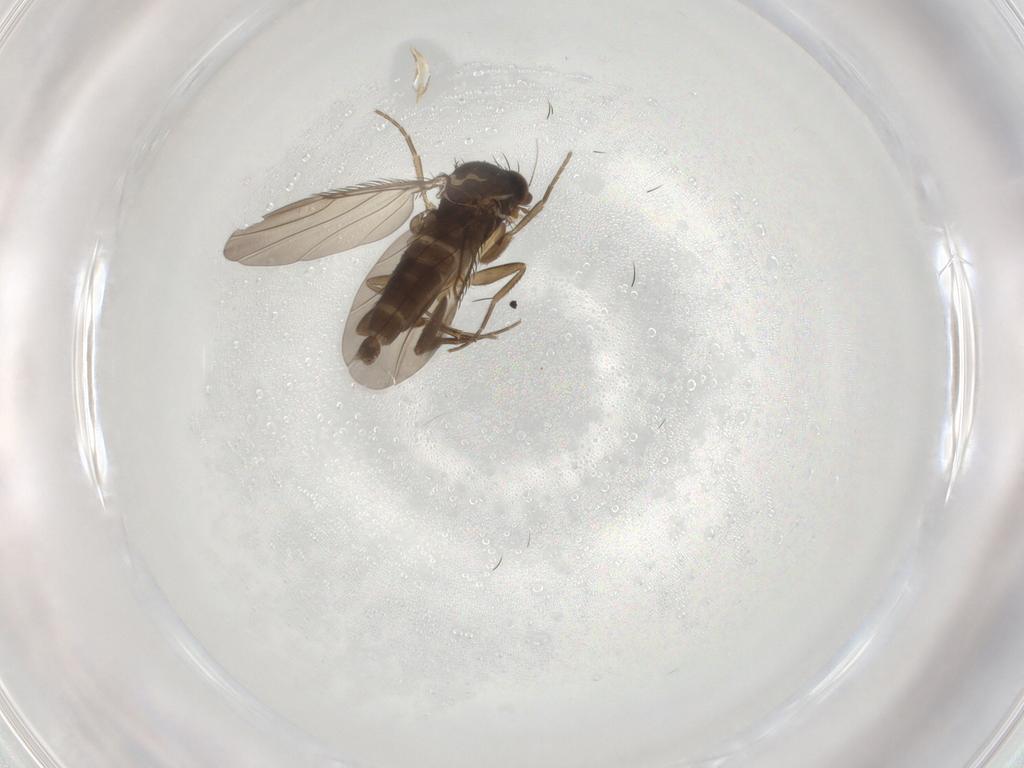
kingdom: Animalia
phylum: Arthropoda
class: Insecta
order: Diptera
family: Phoridae
